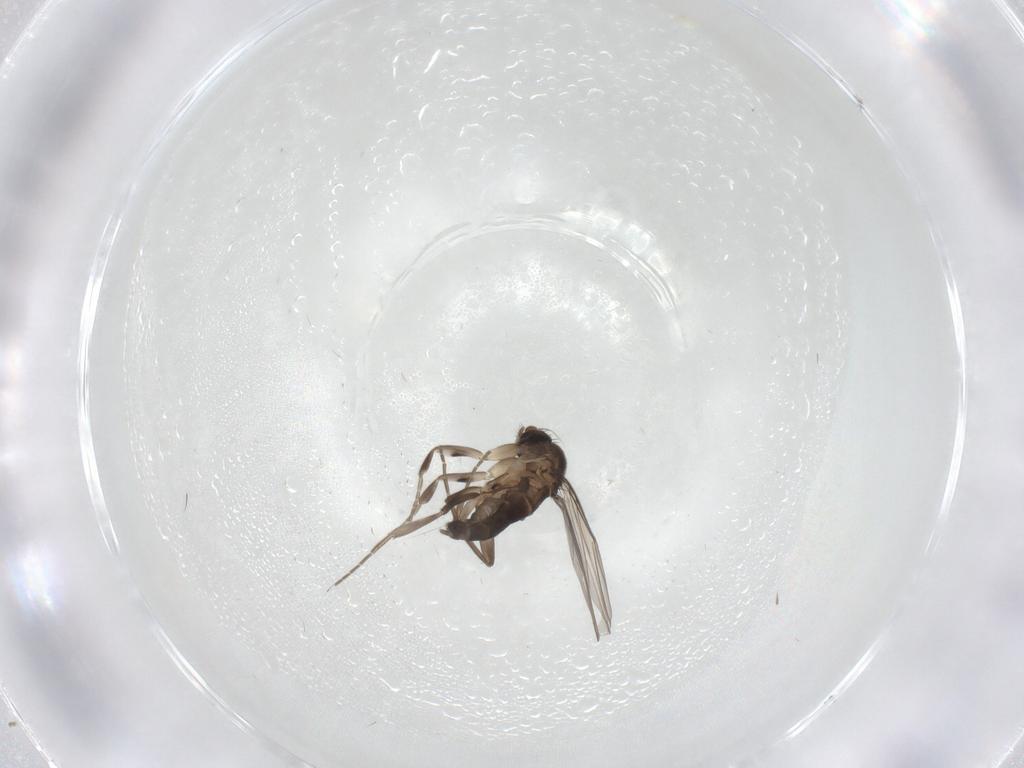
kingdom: Animalia
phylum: Arthropoda
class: Insecta
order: Diptera
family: Phoridae
